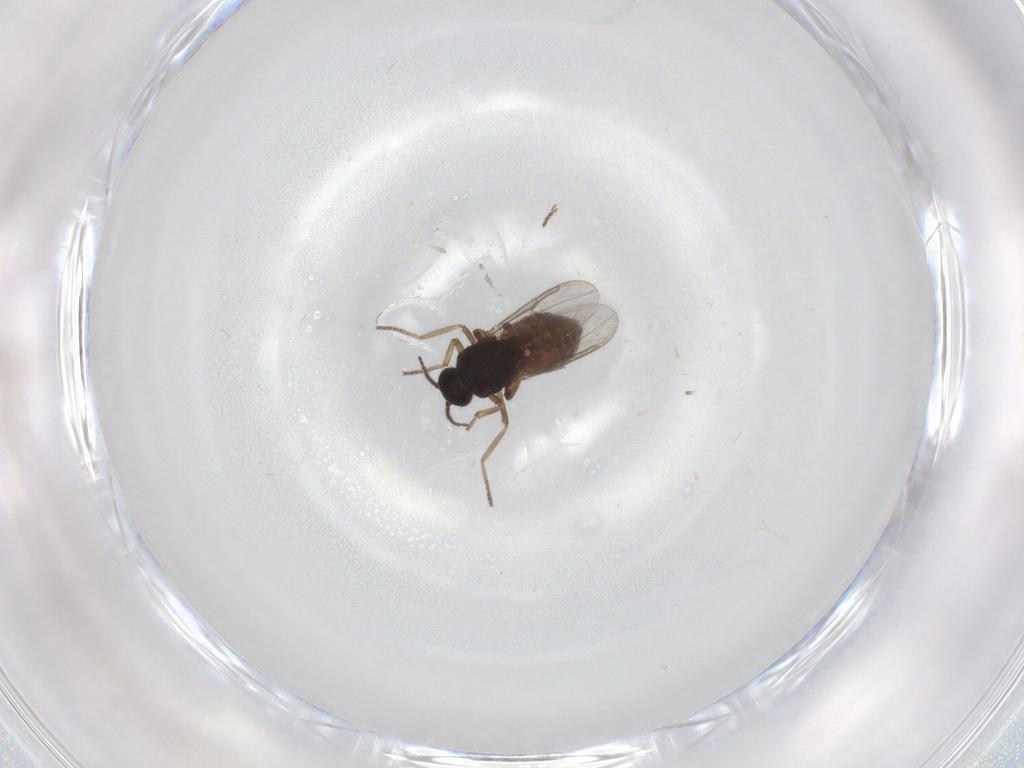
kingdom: Animalia
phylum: Arthropoda
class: Insecta
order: Diptera
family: Ceratopogonidae
